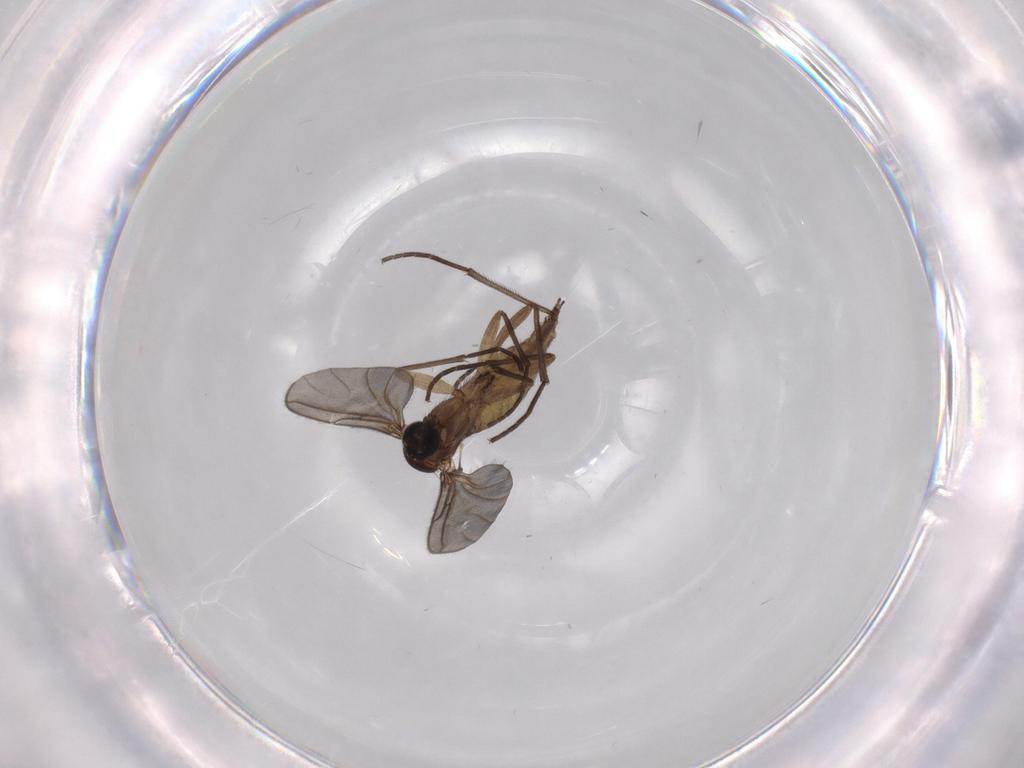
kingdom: Animalia
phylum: Arthropoda
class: Insecta
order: Diptera
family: Sciaridae
